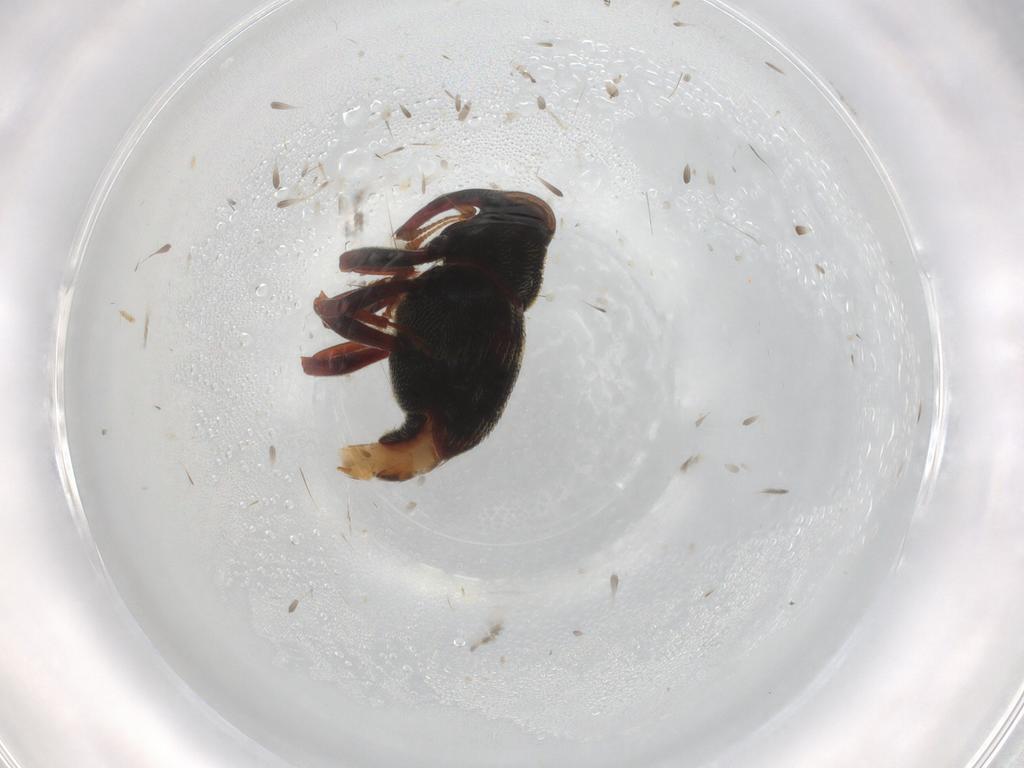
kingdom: Animalia
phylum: Arthropoda
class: Insecta
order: Coleoptera
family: Curculionidae
